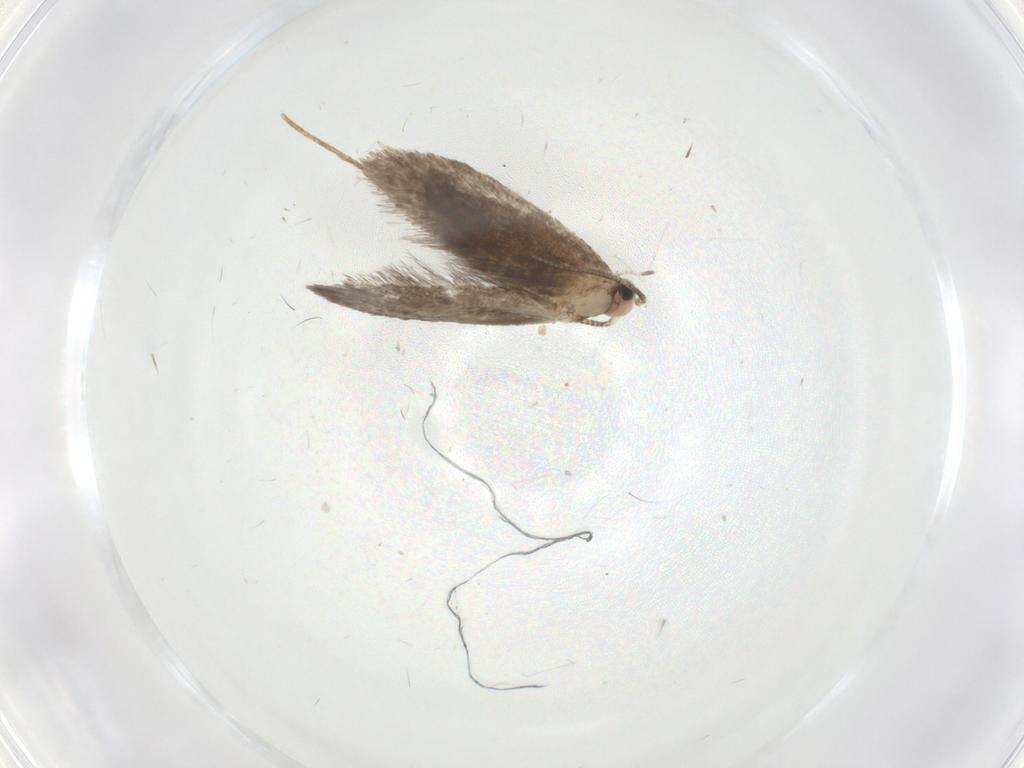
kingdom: Animalia
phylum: Arthropoda
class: Insecta
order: Lepidoptera
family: Tineidae
